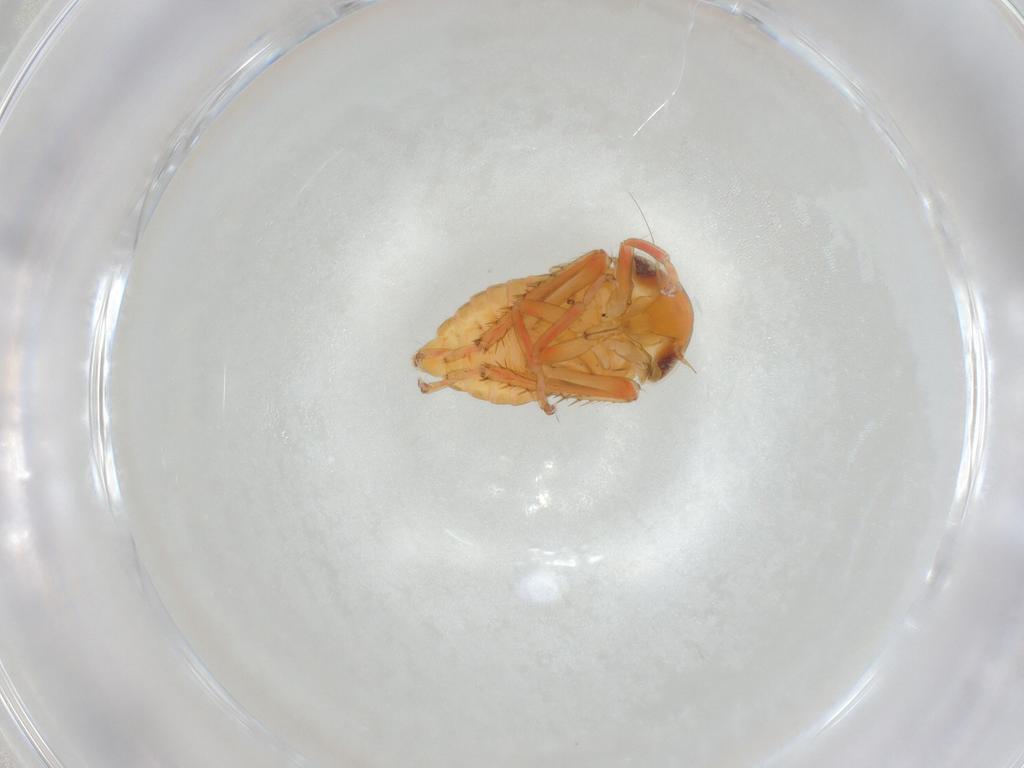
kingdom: Animalia
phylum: Arthropoda
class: Insecta
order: Hemiptera
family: Cicadellidae
